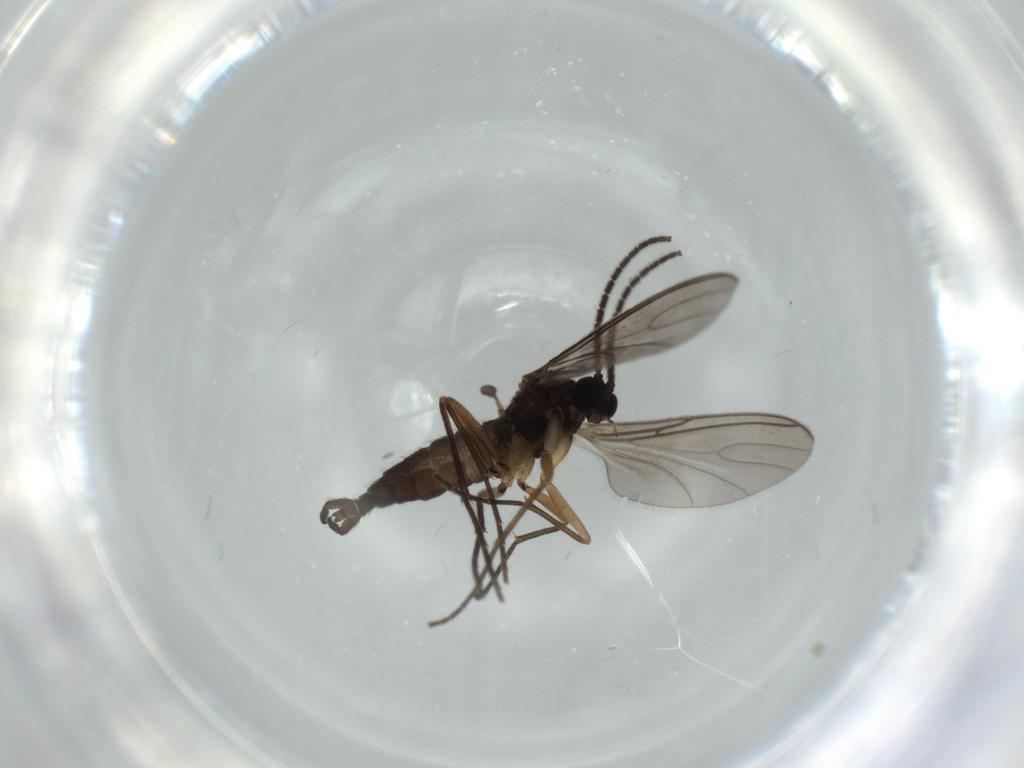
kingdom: Animalia
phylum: Arthropoda
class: Insecta
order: Diptera
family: Sciaridae
